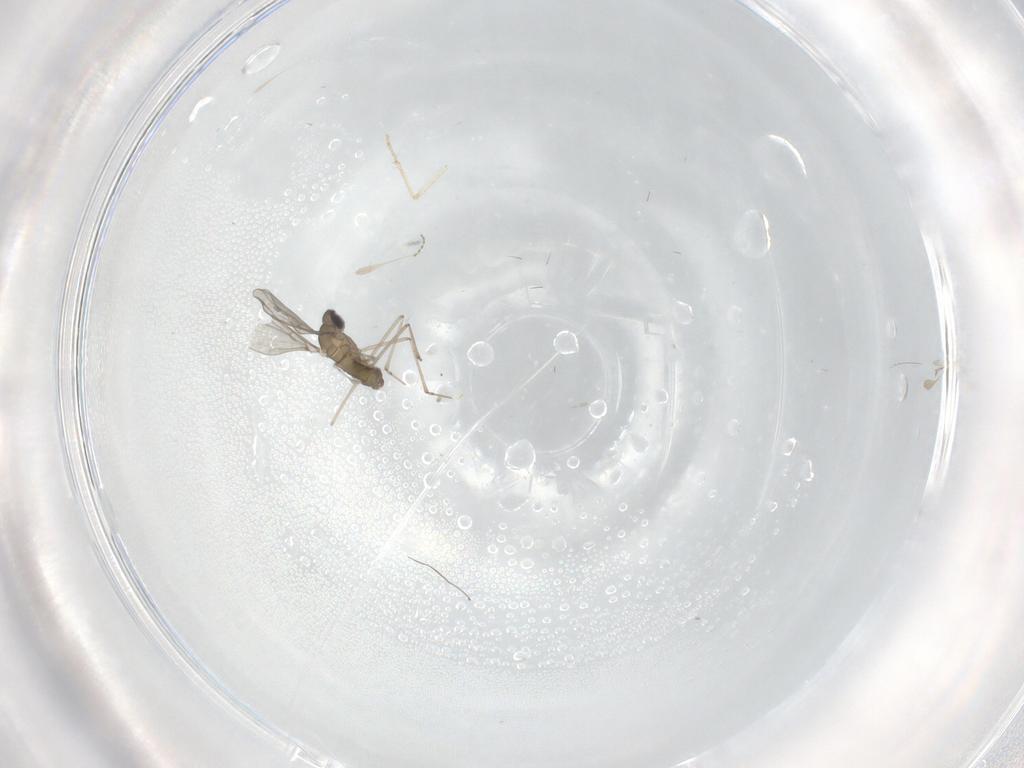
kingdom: Animalia
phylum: Arthropoda
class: Insecta
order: Diptera
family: Cecidomyiidae
